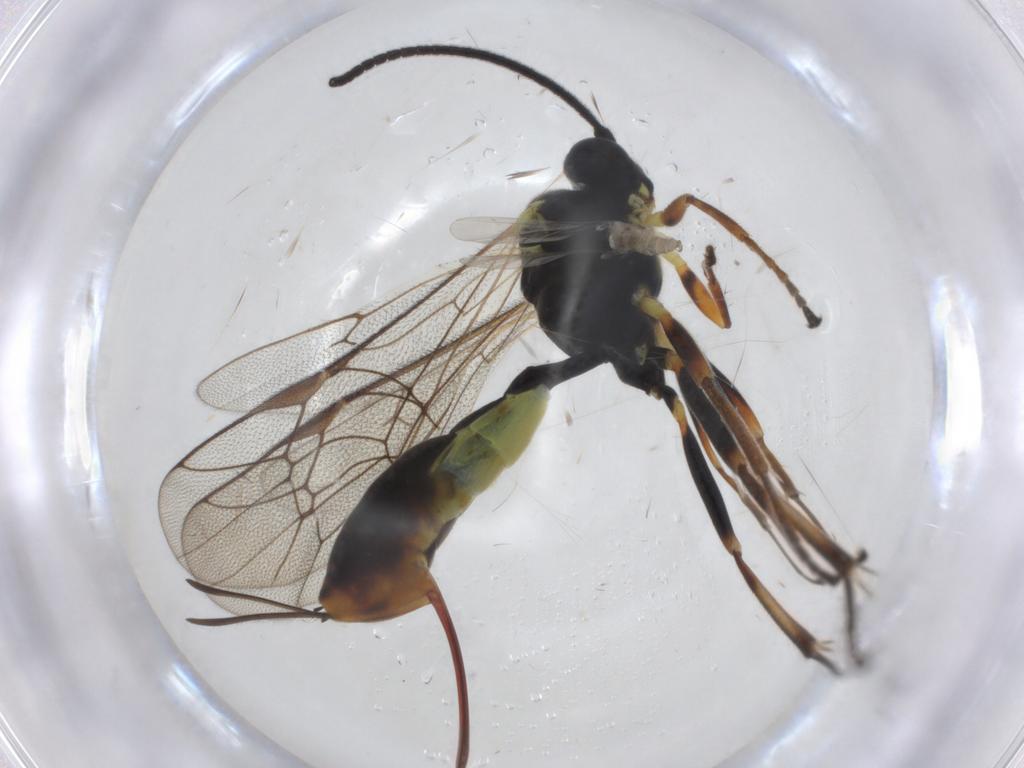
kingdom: Animalia
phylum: Arthropoda
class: Insecta
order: Hymenoptera
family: Ichneumonidae
